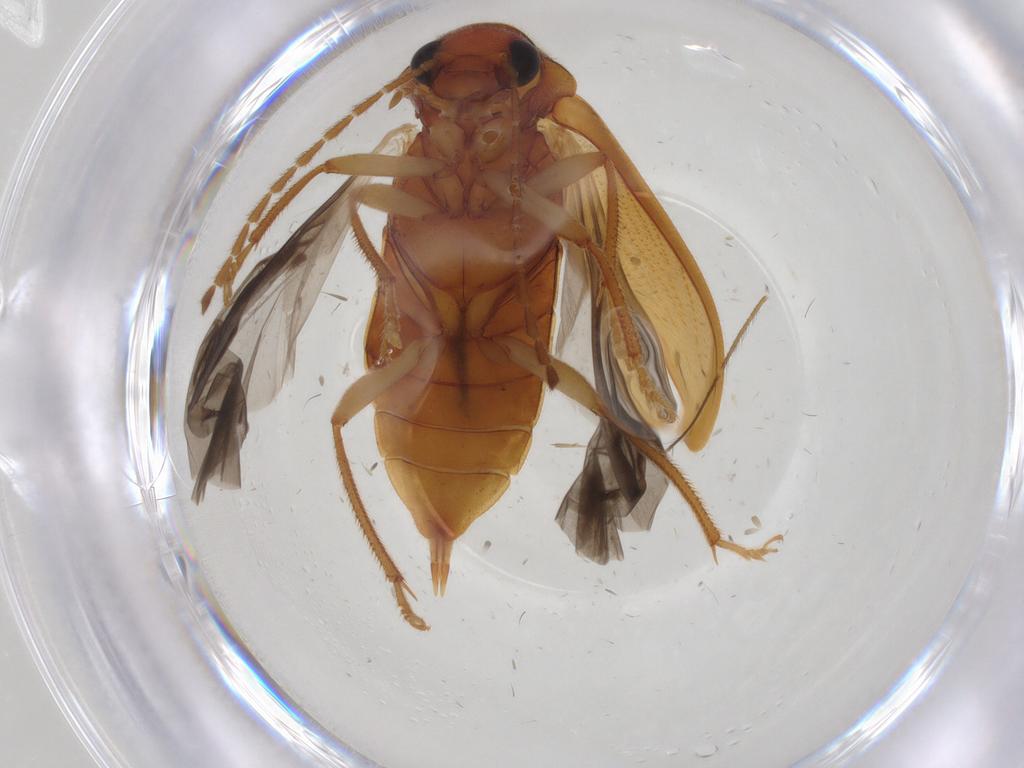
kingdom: Animalia
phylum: Arthropoda
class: Insecta
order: Coleoptera
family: Ptilodactylidae
